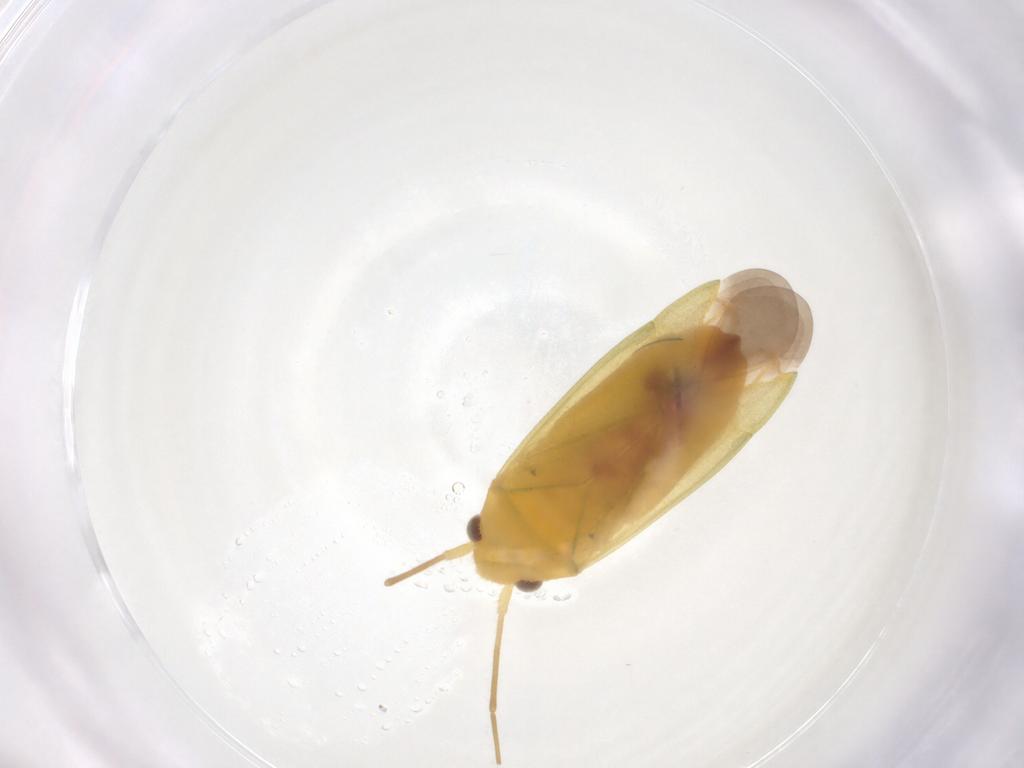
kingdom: Animalia
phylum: Arthropoda
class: Insecta
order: Hemiptera
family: Miridae
